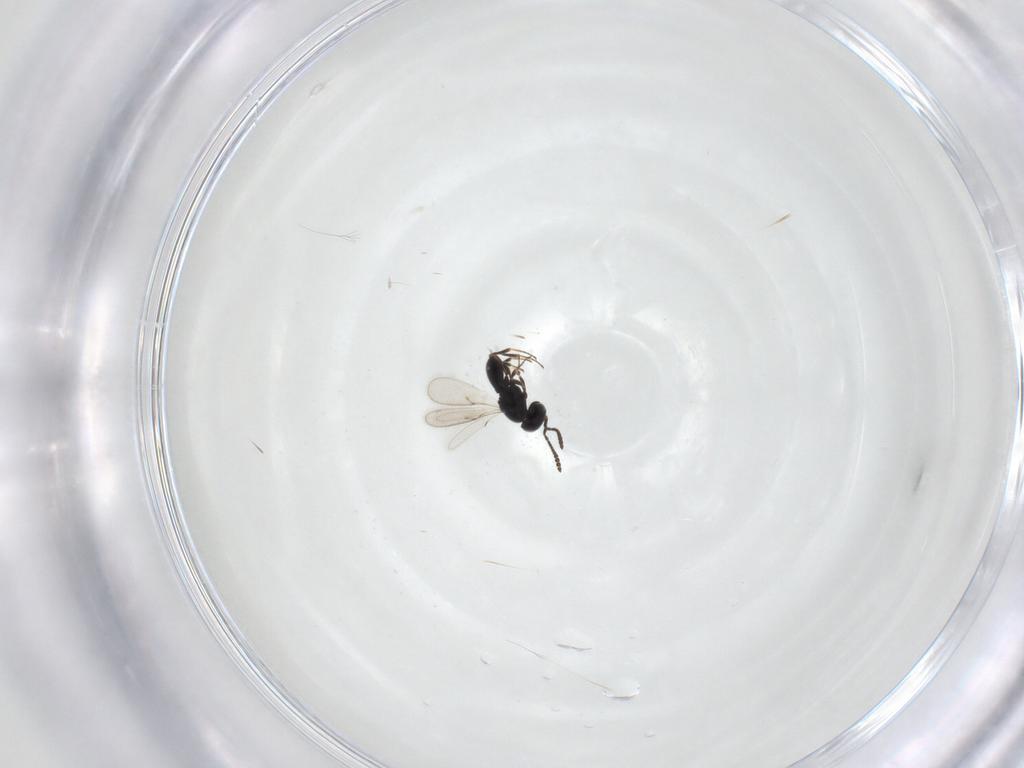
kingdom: Animalia
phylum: Arthropoda
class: Insecta
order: Hymenoptera
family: Scelionidae
